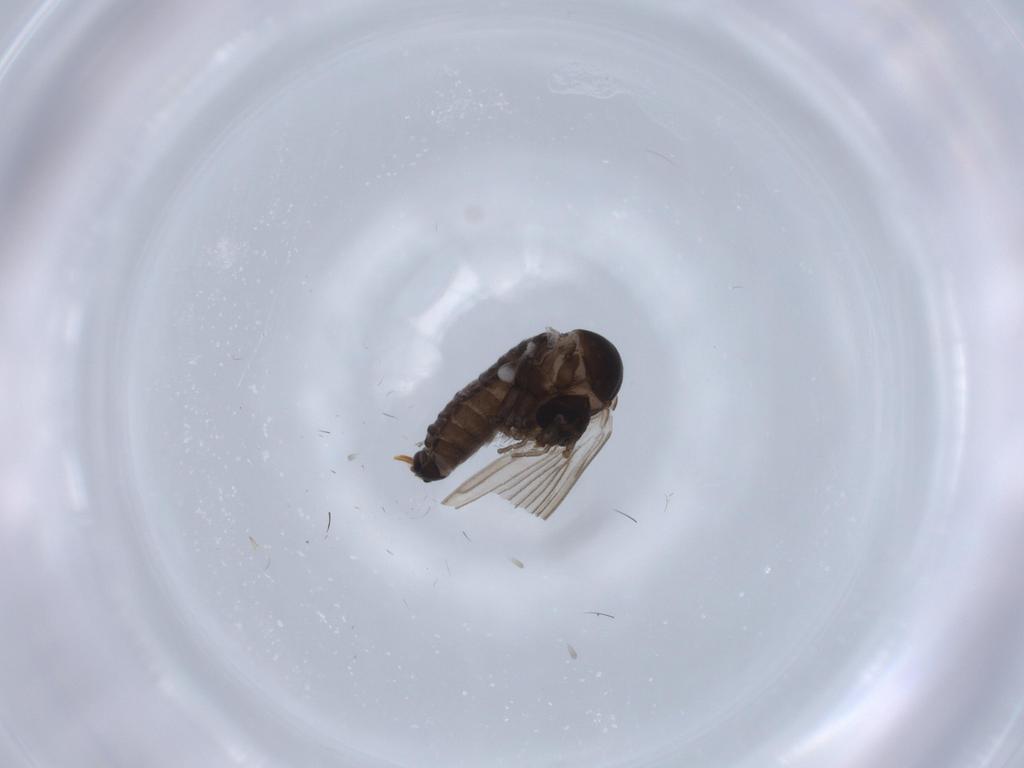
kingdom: Animalia
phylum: Arthropoda
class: Insecta
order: Diptera
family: Psychodidae
